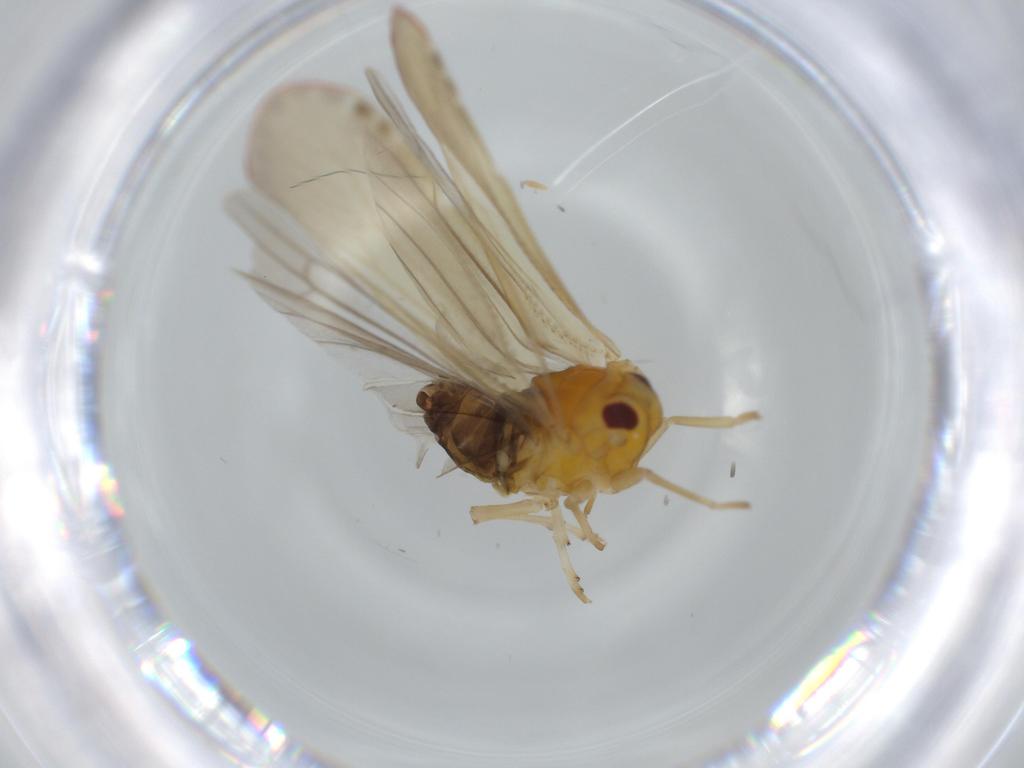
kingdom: Animalia
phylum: Arthropoda
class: Insecta
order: Hemiptera
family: Derbidae
